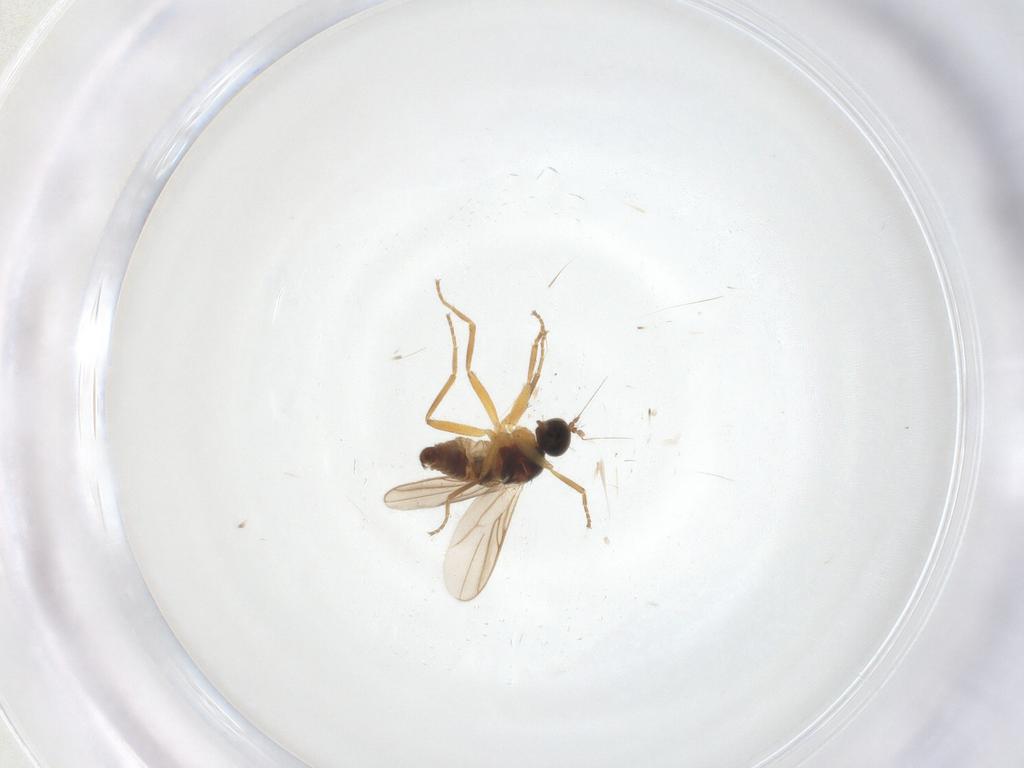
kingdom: Animalia
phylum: Arthropoda
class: Insecta
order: Diptera
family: Hybotidae
